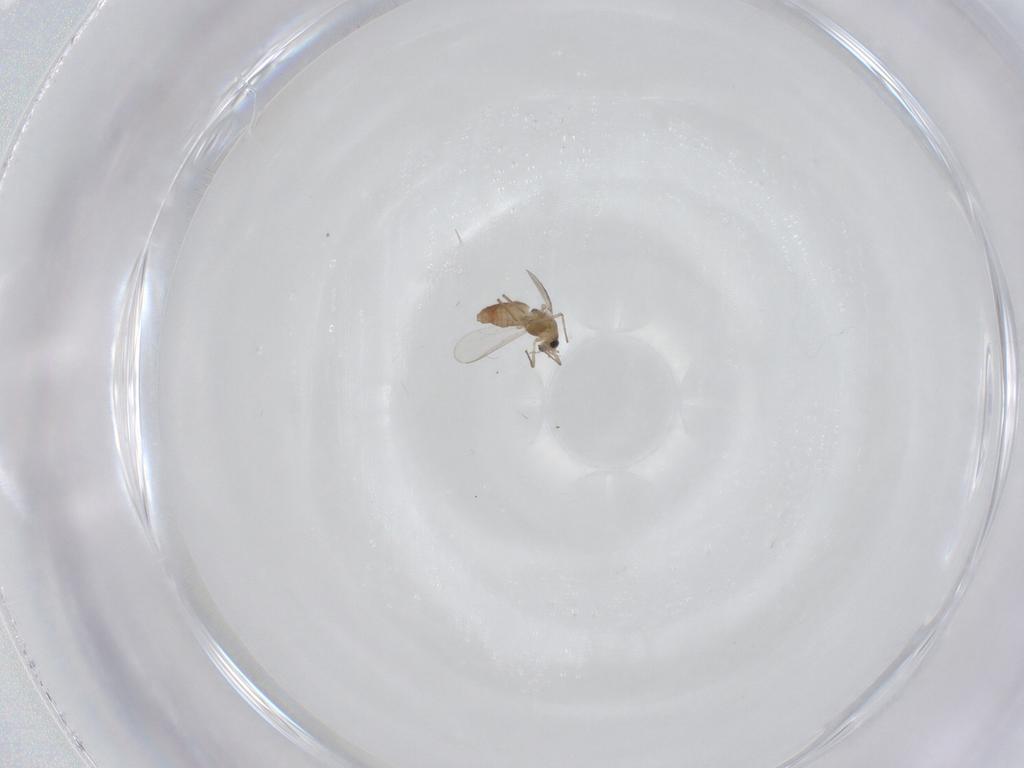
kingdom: Animalia
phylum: Arthropoda
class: Insecta
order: Diptera
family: Chironomidae
